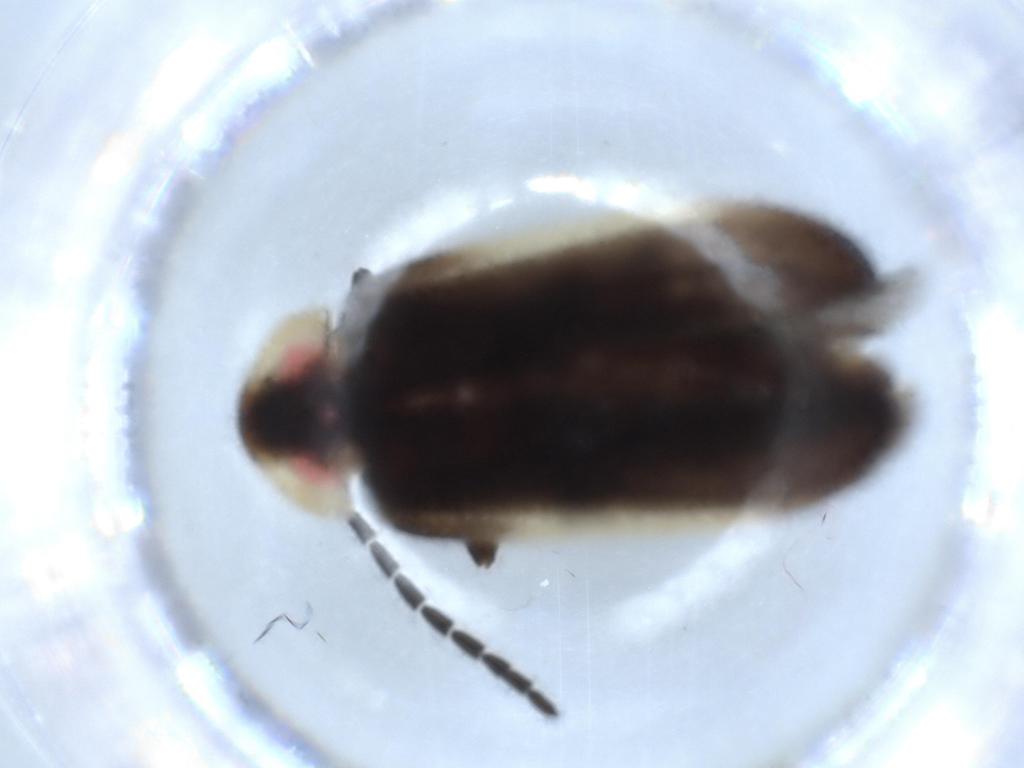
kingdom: Animalia
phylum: Arthropoda
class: Insecta
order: Coleoptera
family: Lampyridae
